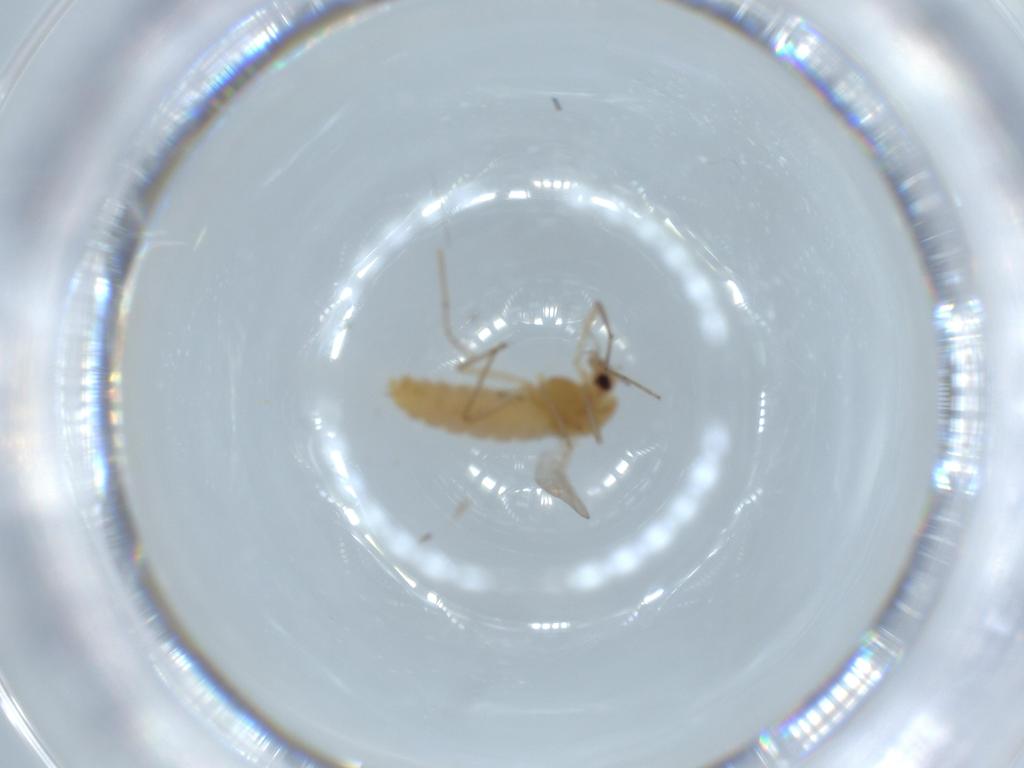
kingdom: Animalia
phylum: Arthropoda
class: Insecta
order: Diptera
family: Chironomidae
